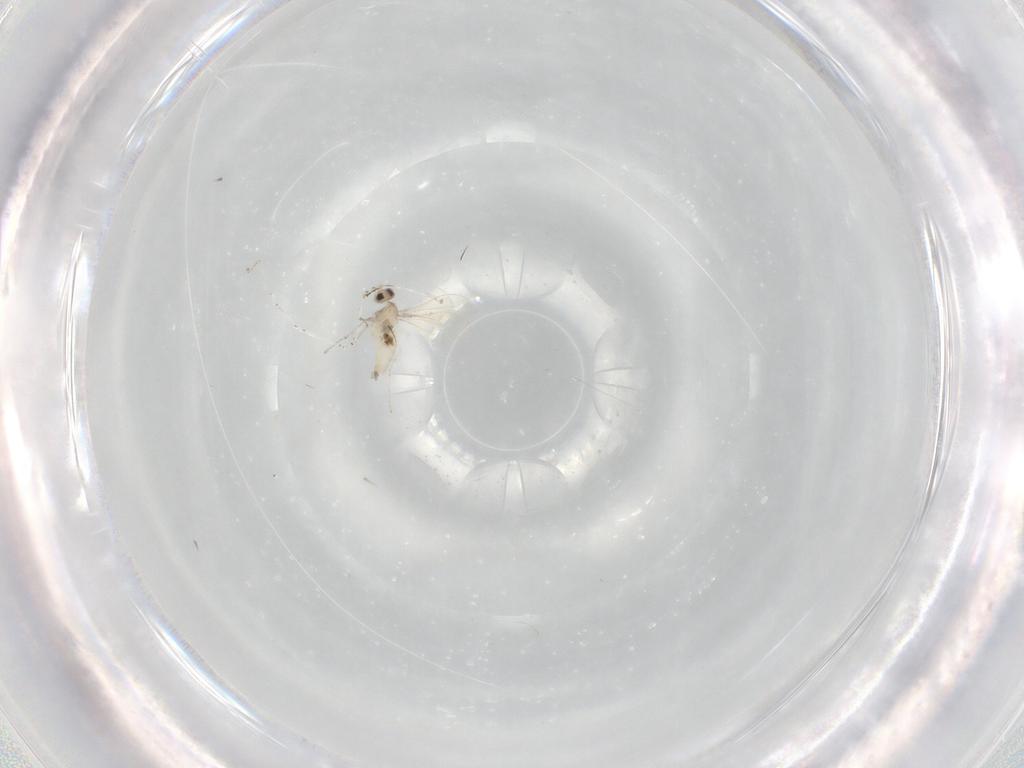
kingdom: Animalia
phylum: Arthropoda
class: Insecta
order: Diptera
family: Cecidomyiidae
